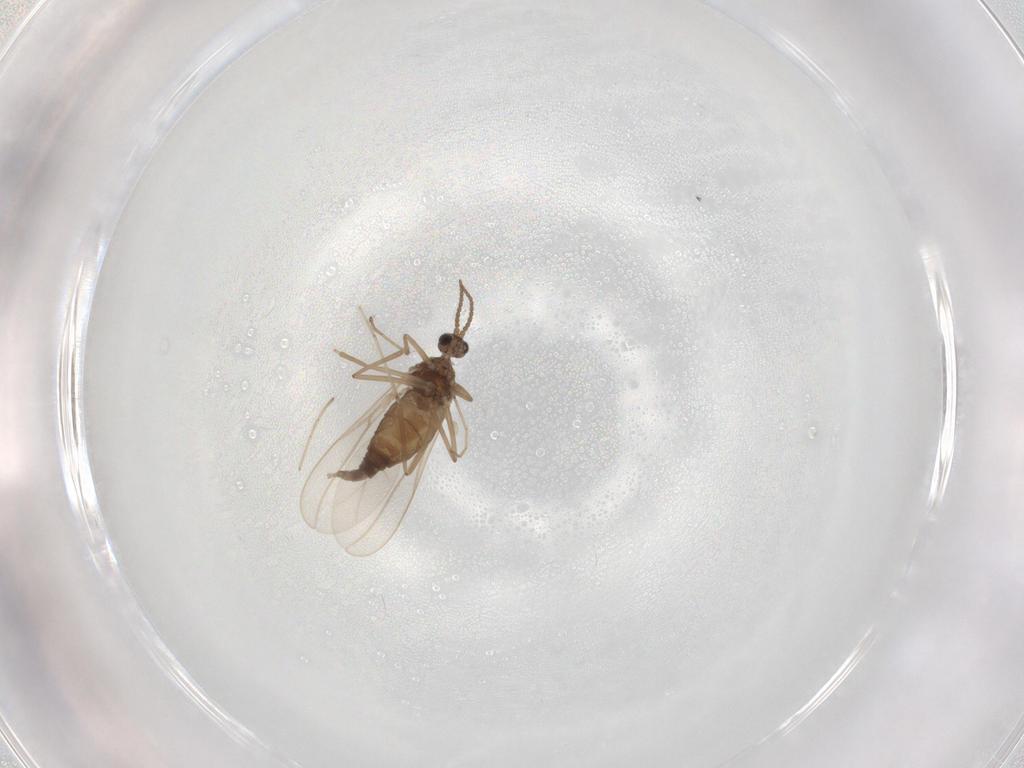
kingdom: Animalia
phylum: Arthropoda
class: Insecta
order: Diptera
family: Cecidomyiidae
